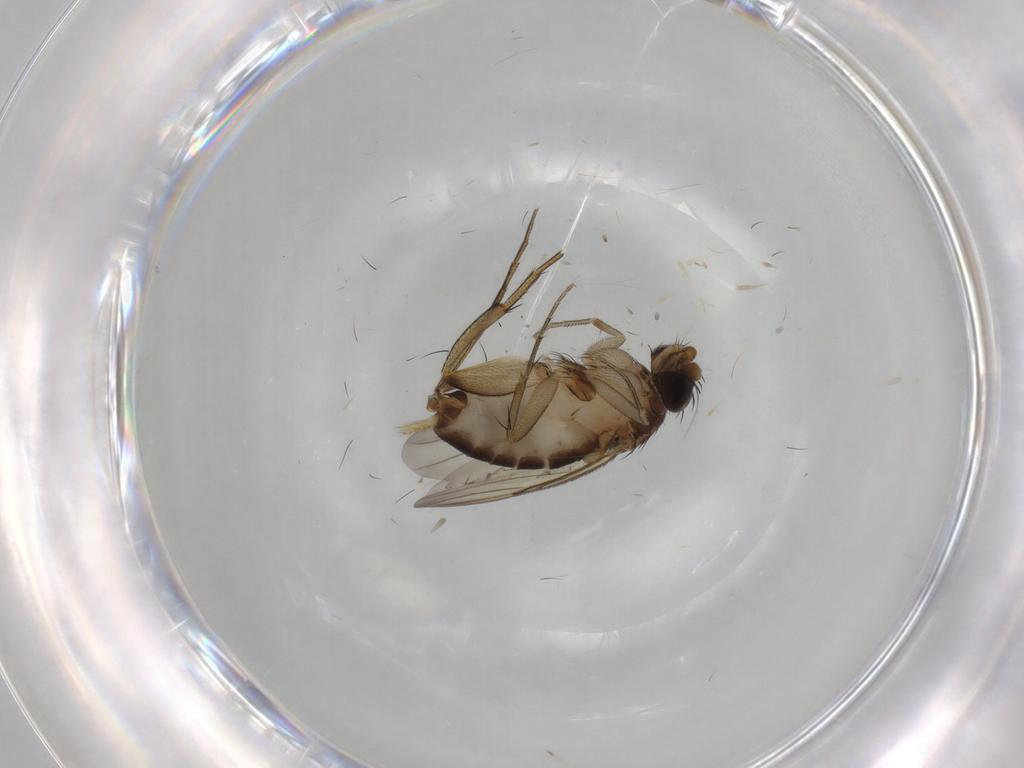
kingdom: Animalia
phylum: Arthropoda
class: Insecta
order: Diptera
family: Cecidomyiidae
